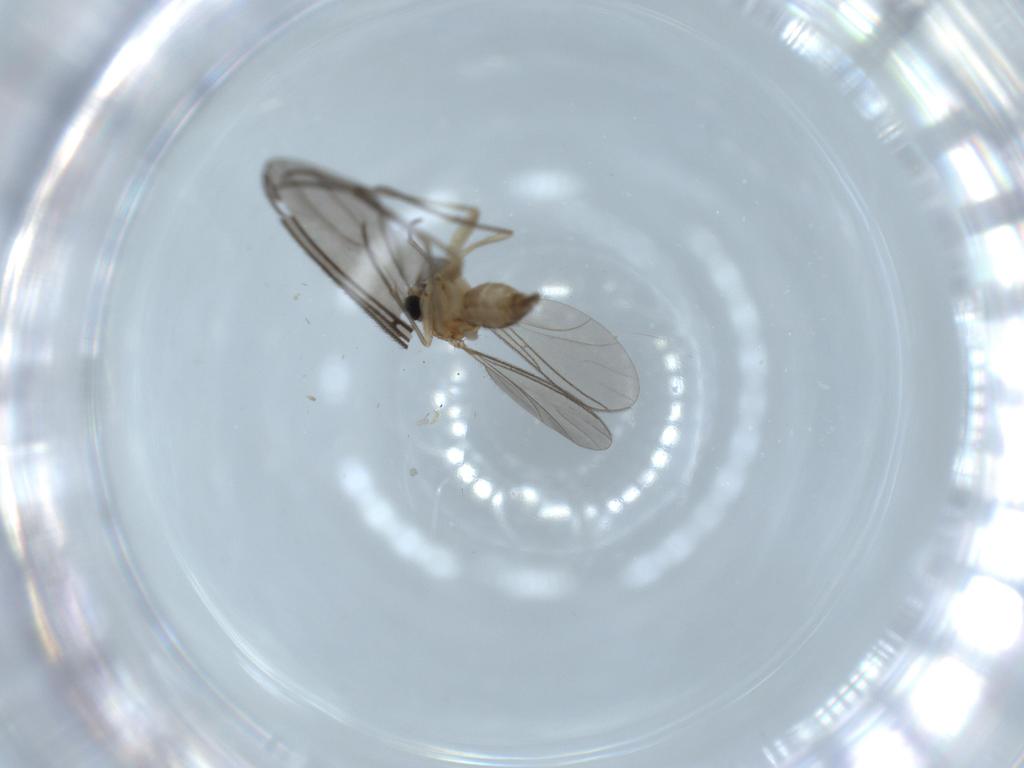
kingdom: Animalia
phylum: Arthropoda
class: Insecta
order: Diptera
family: Sciaridae
